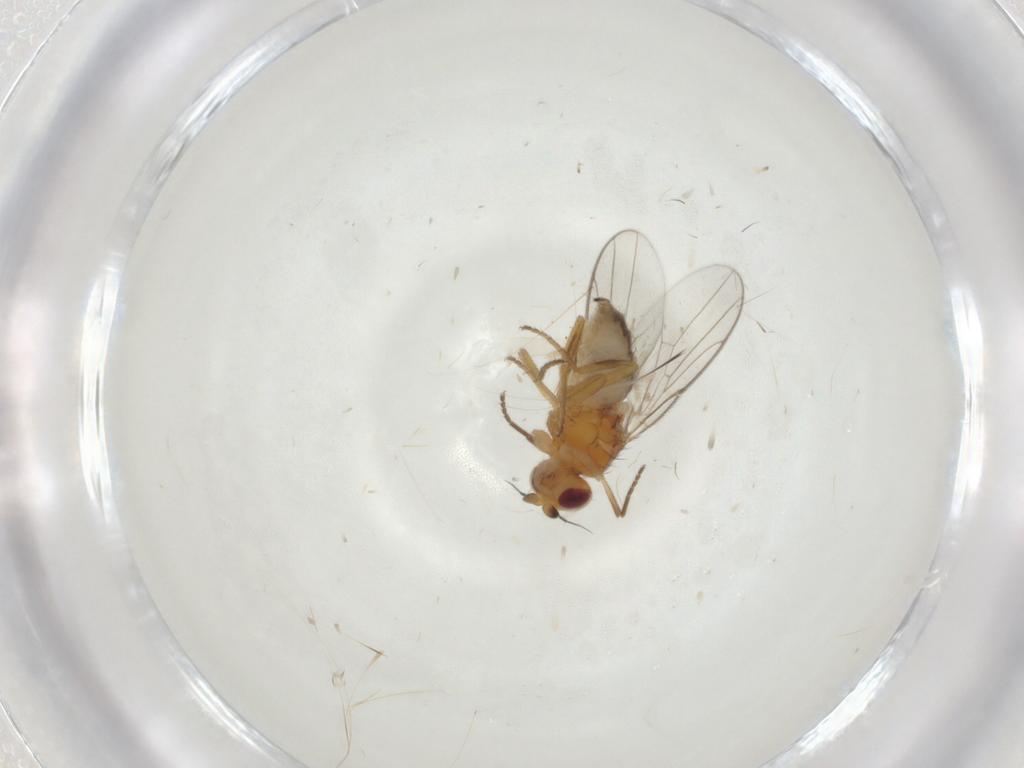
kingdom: Animalia
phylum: Arthropoda
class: Insecta
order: Diptera
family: Chloropidae
